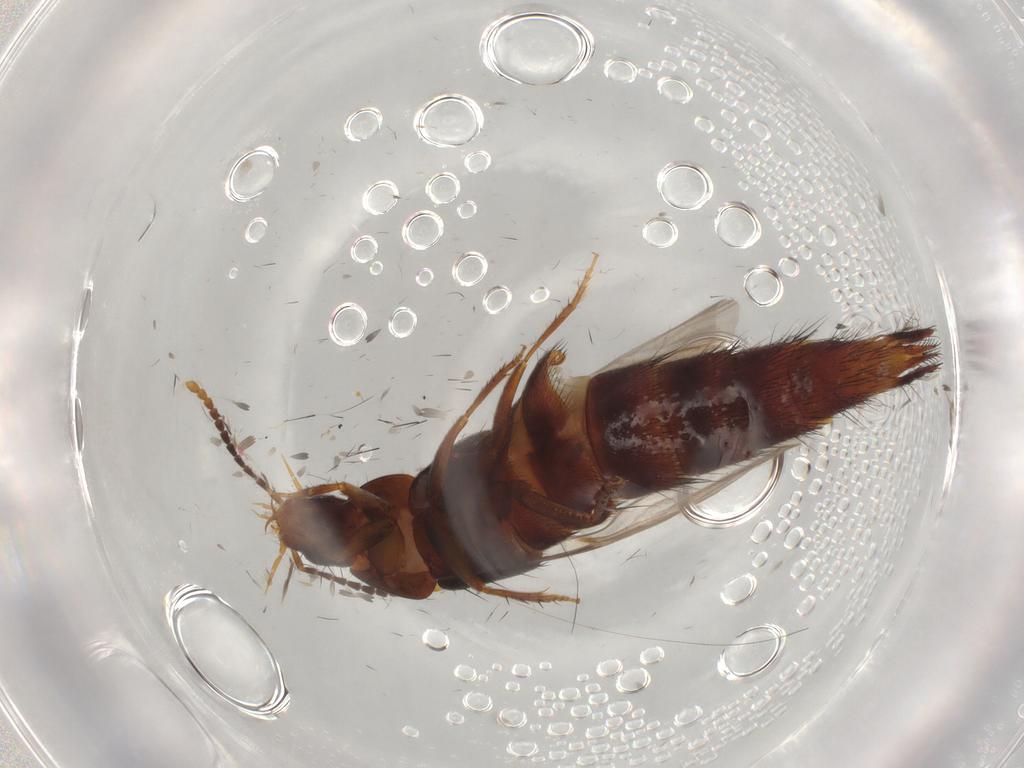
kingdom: Animalia
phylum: Arthropoda
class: Insecta
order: Coleoptera
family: Staphylinidae
